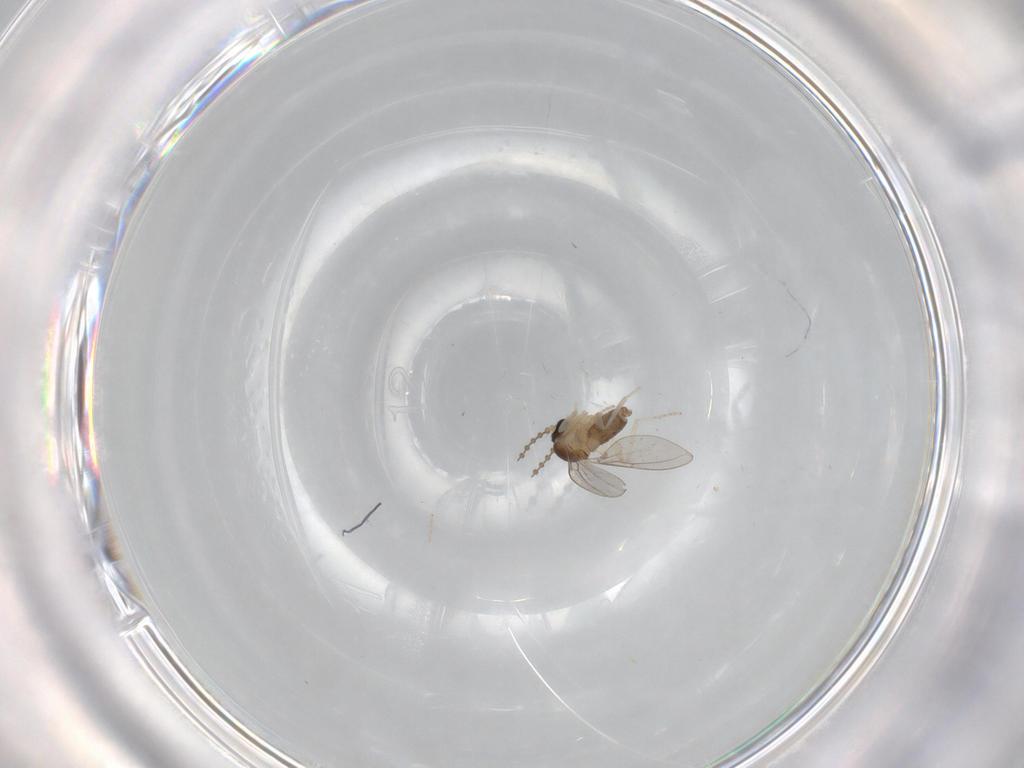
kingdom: Animalia
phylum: Arthropoda
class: Insecta
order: Diptera
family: Cecidomyiidae
